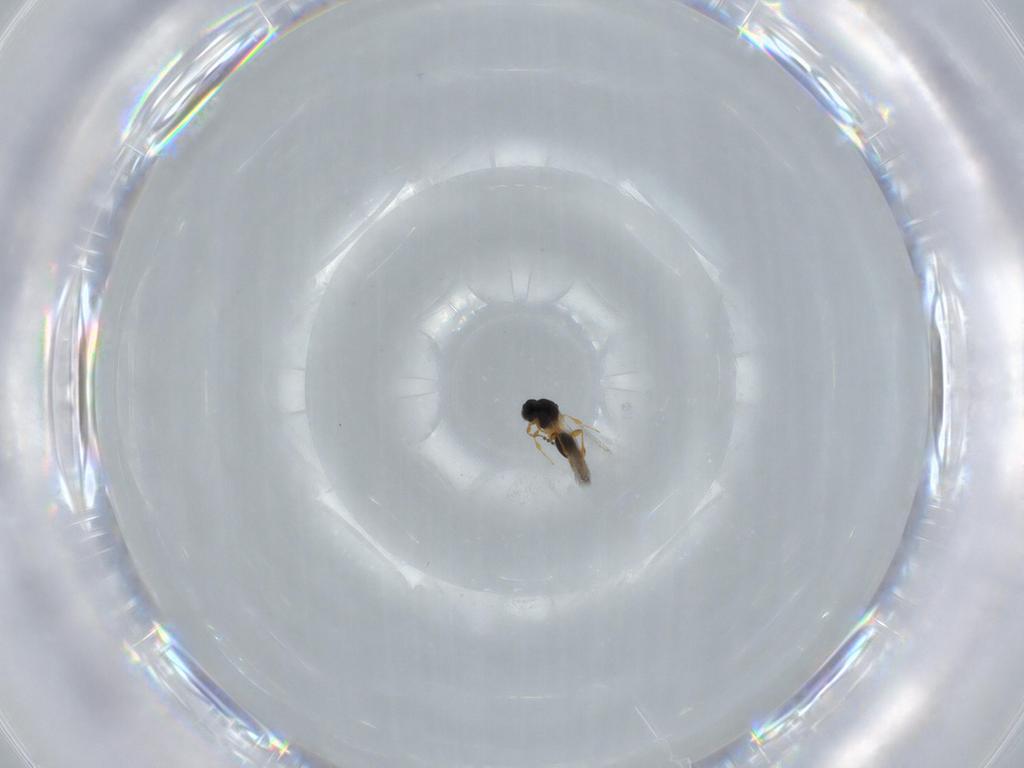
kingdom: Animalia
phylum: Arthropoda
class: Insecta
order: Hymenoptera
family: Platygastridae
